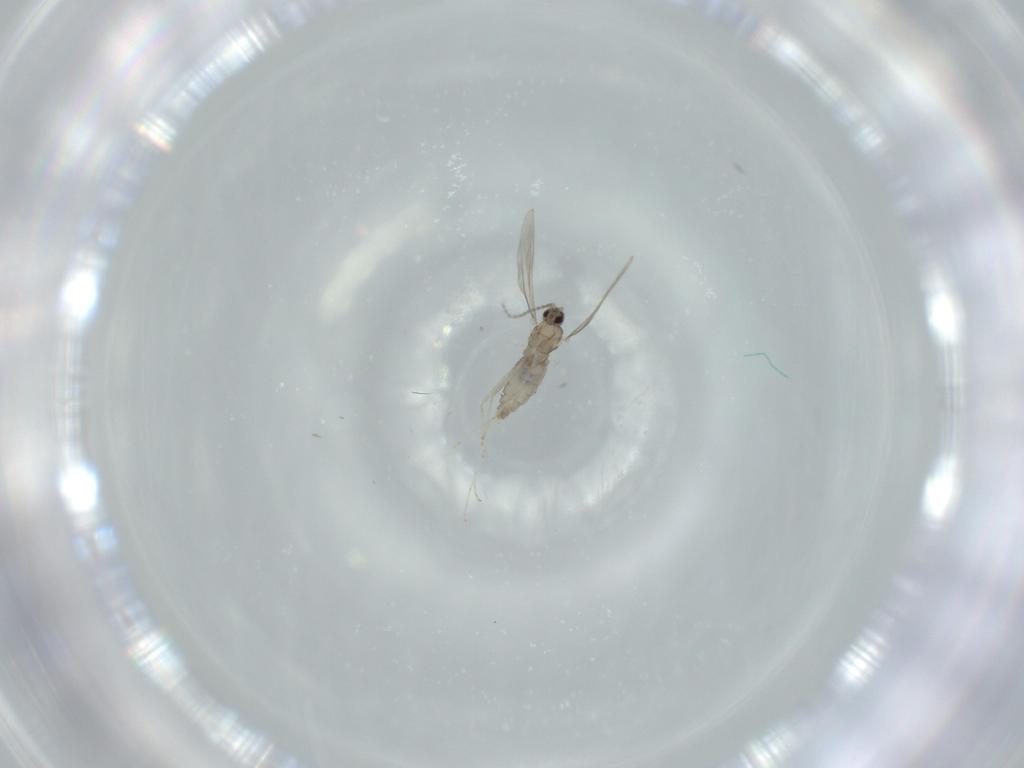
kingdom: Animalia
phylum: Arthropoda
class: Insecta
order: Diptera
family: Cecidomyiidae
